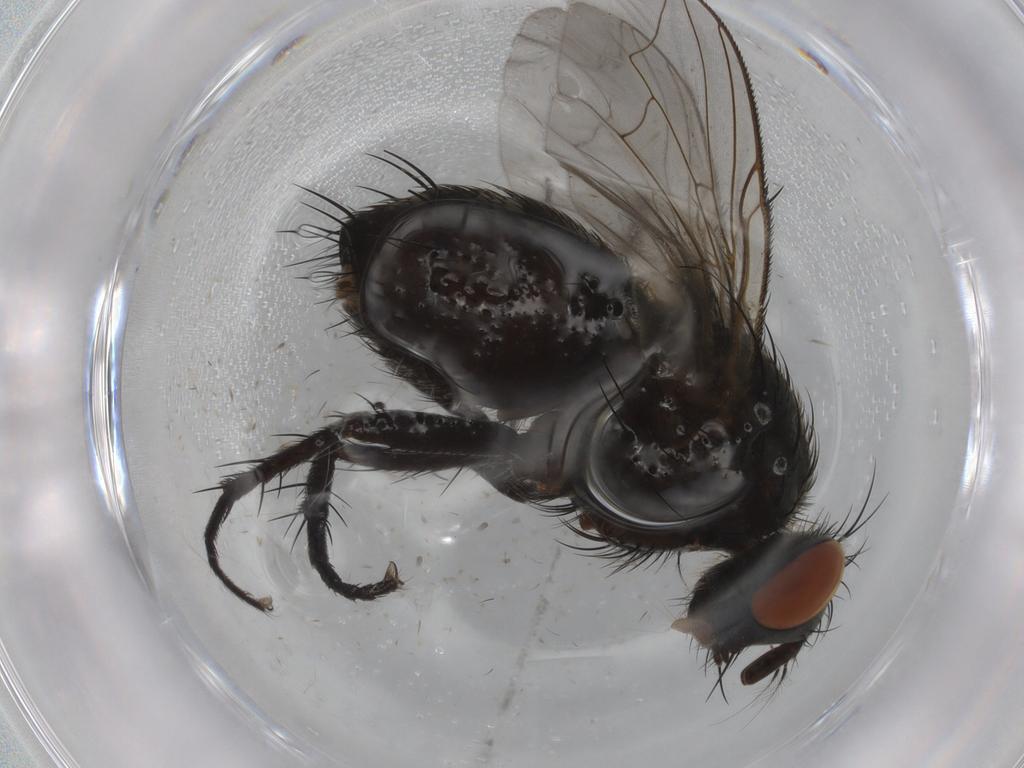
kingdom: Animalia
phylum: Arthropoda
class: Insecta
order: Diptera
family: Sarcophagidae
